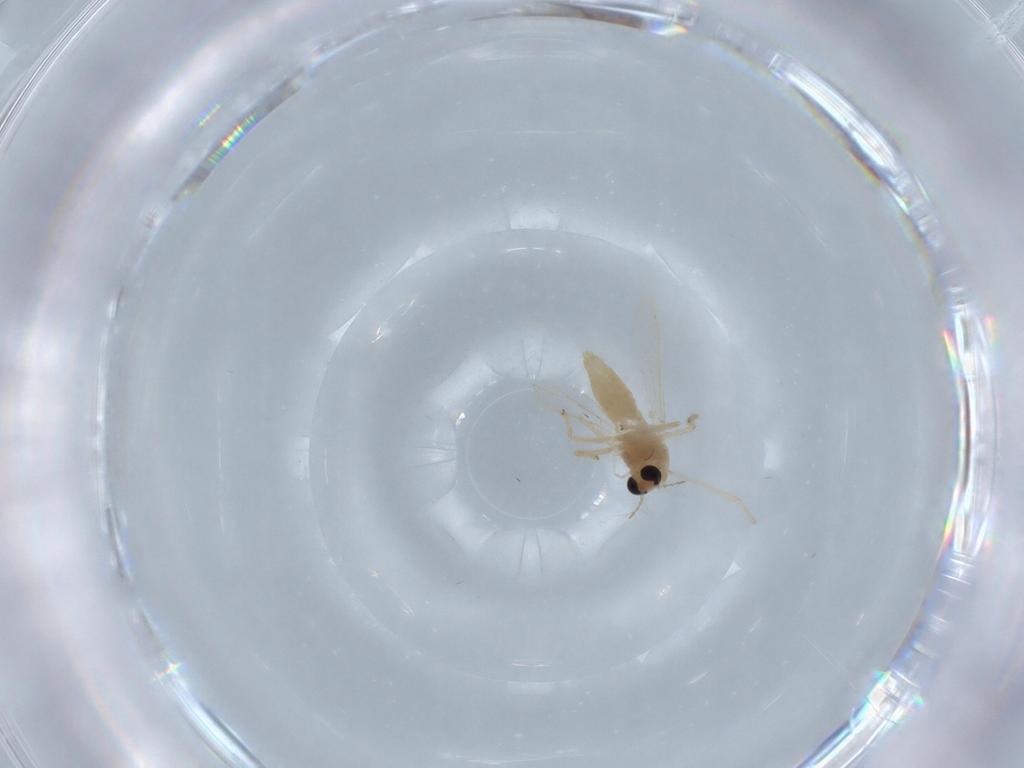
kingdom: Animalia
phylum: Arthropoda
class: Insecta
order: Diptera
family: Chironomidae
